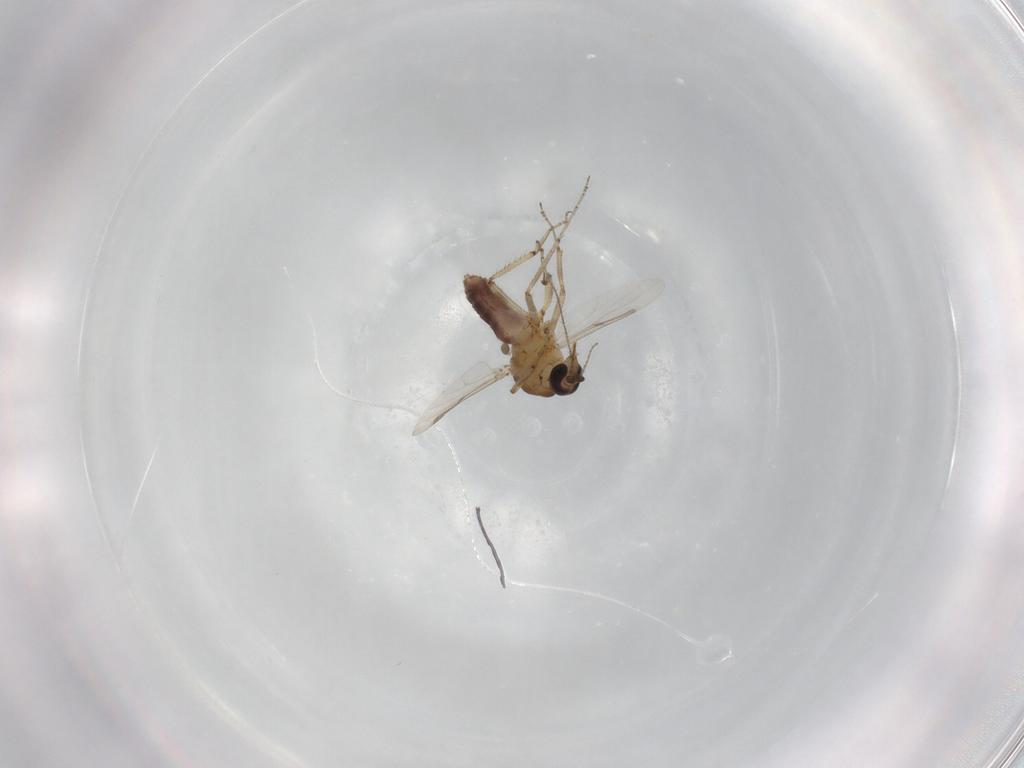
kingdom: Animalia
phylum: Arthropoda
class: Insecta
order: Diptera
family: Ceratopogonidae
